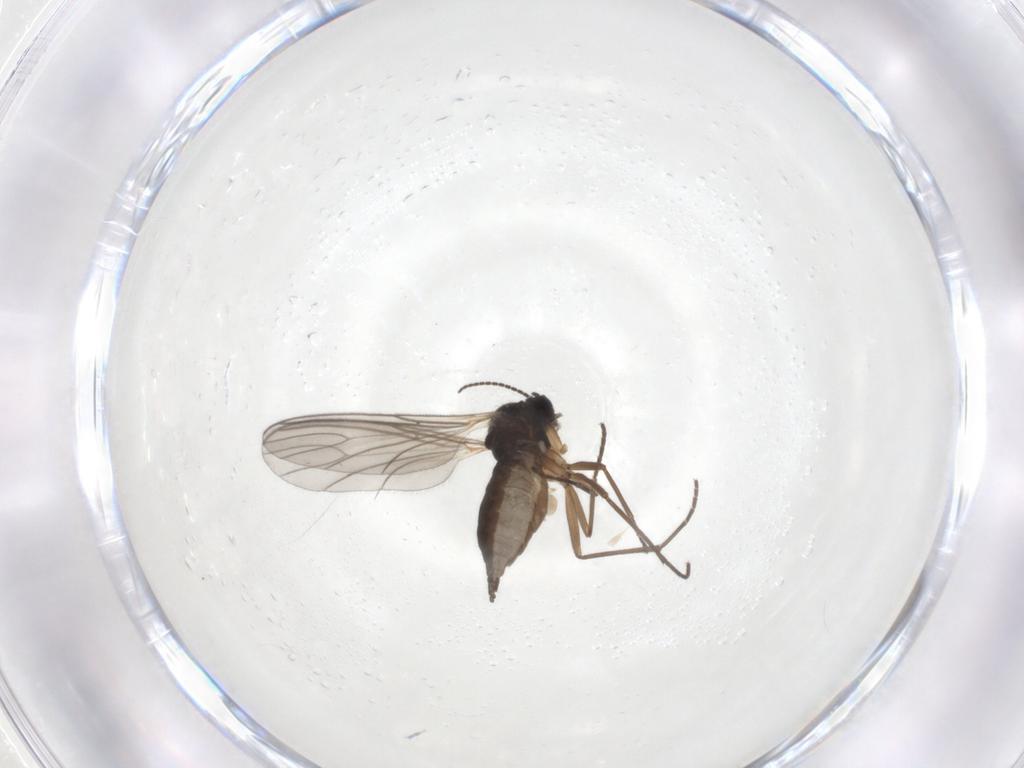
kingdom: Animalia
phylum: Arthropoda
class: Insecta
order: Diptera
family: Sciaridae
